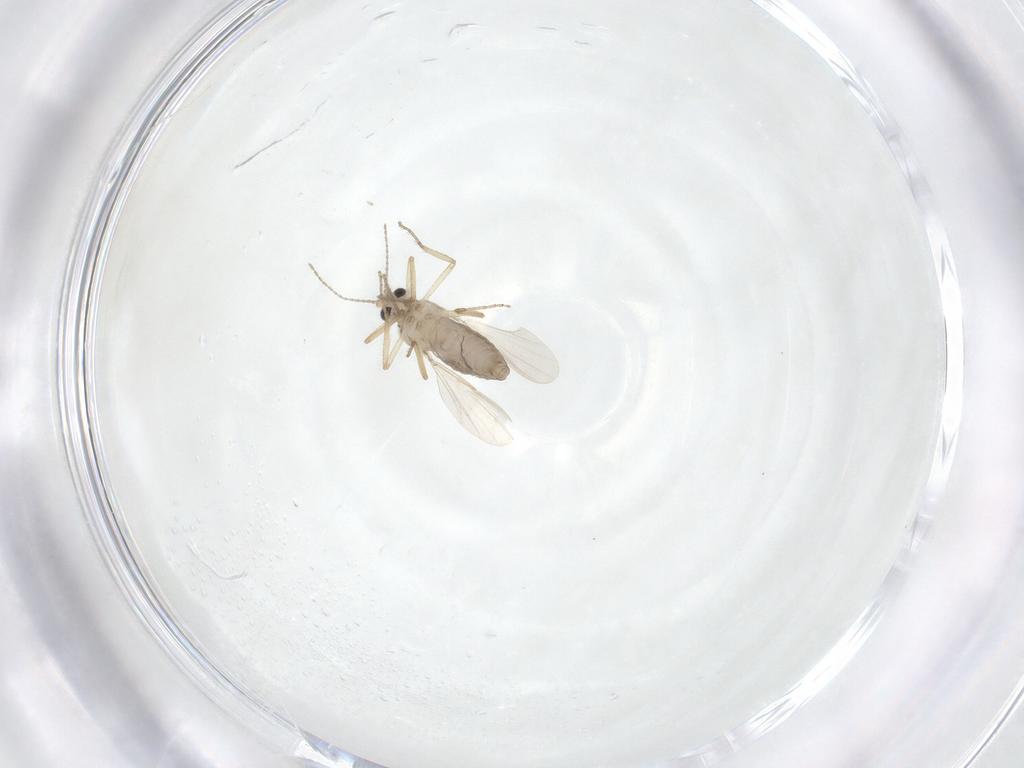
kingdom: Animalia
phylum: Arthropoda
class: Insecta
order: Diptera
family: Ceratopogonidae
